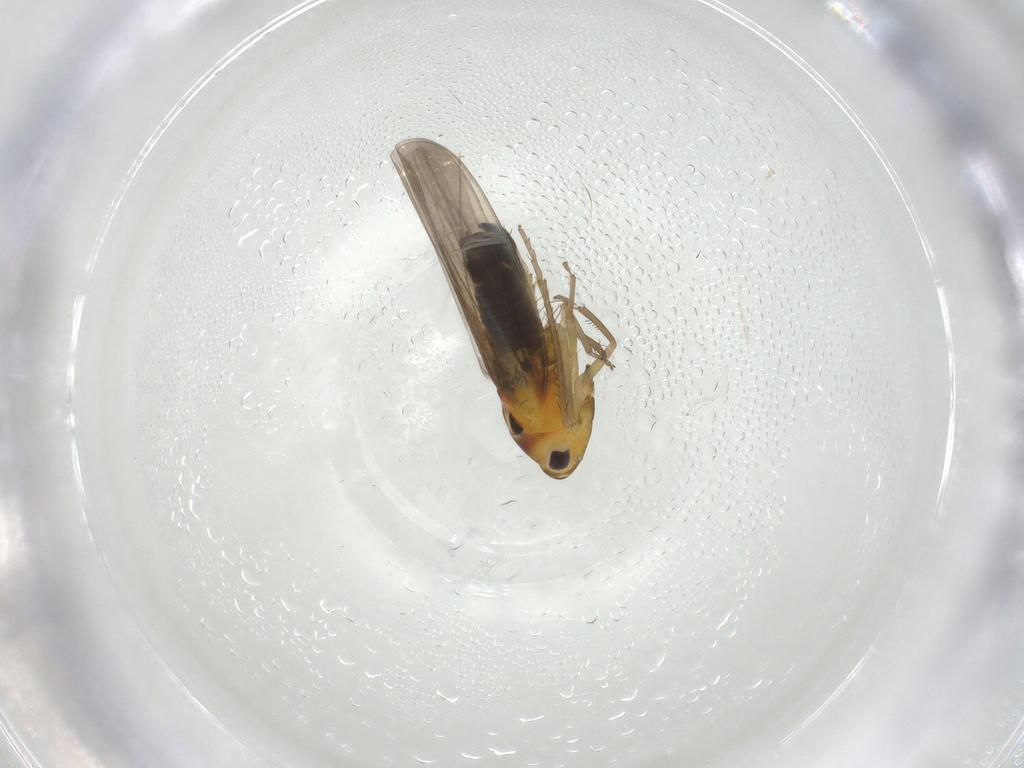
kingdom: Animalia
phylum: Arthropoda
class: Insecta
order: Hemiptera
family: Cicadellidae
